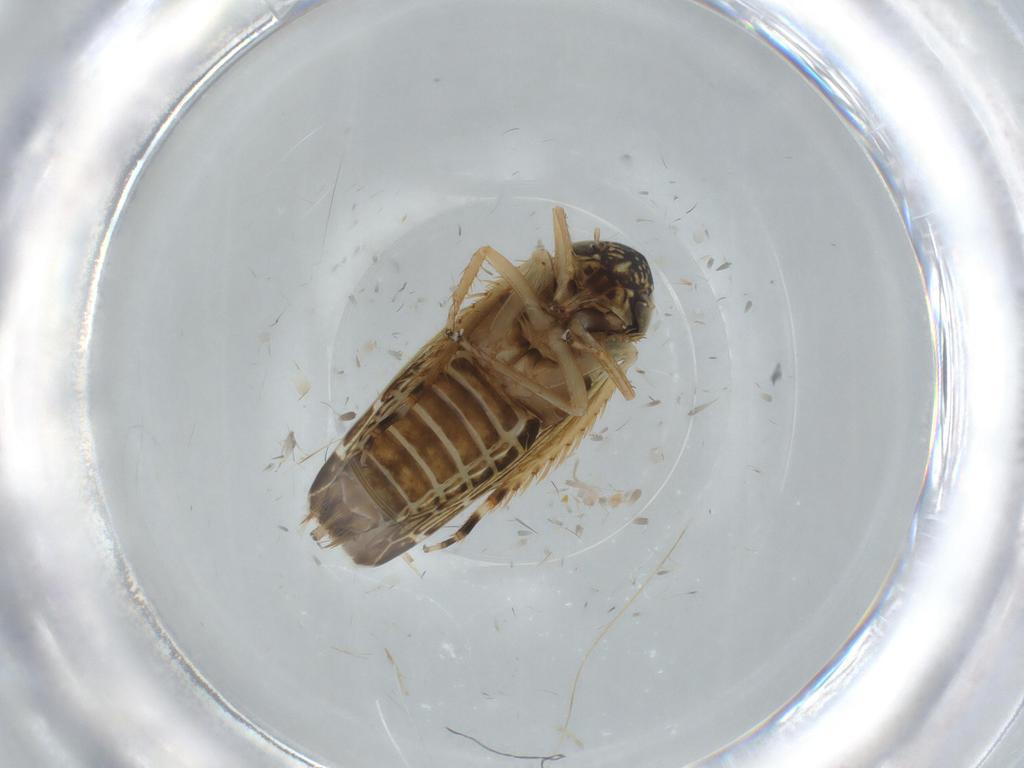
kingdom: Animalia
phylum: Arthropoda
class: Insecta
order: Hemiptera
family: Cicadellidae
